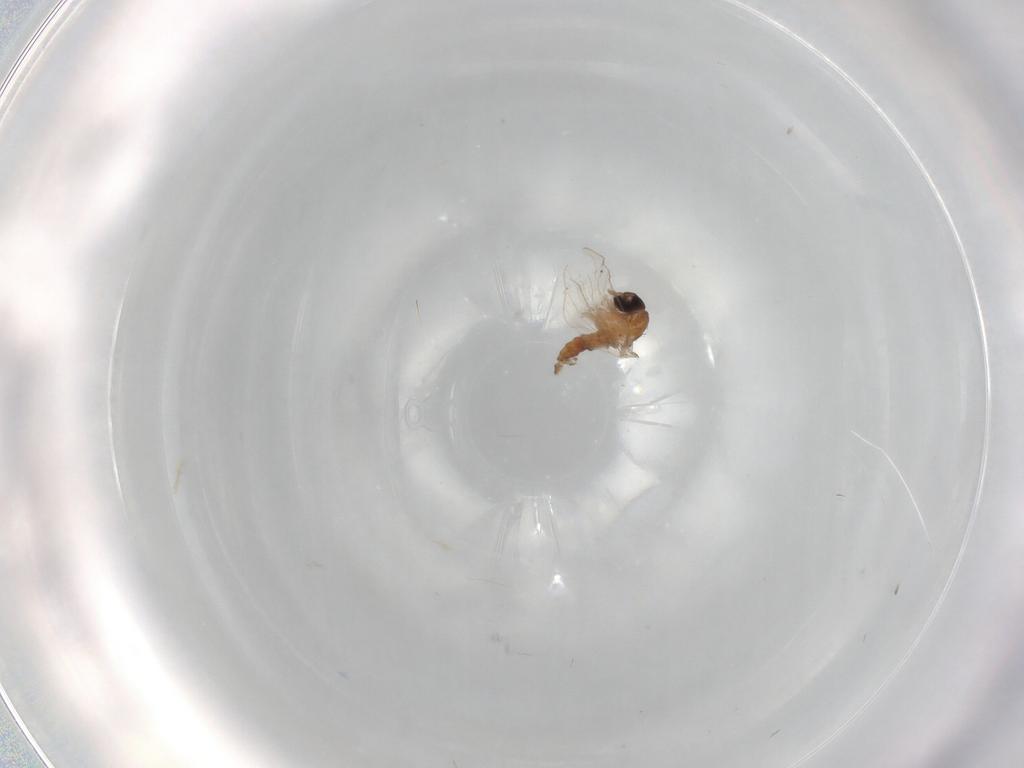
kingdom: Animalia
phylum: Arthropoda
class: Insecta
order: Diptera
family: Psychodidae
